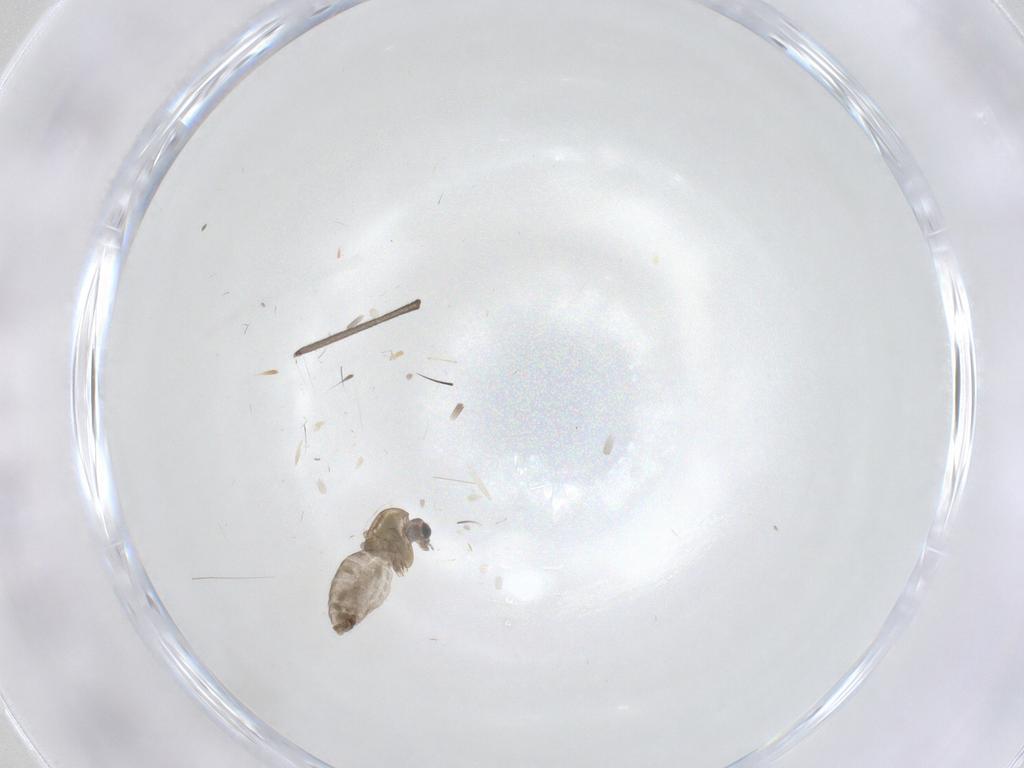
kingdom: Animalia
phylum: Arthropoda
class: Insecta
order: Diptera
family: Chironomidae
